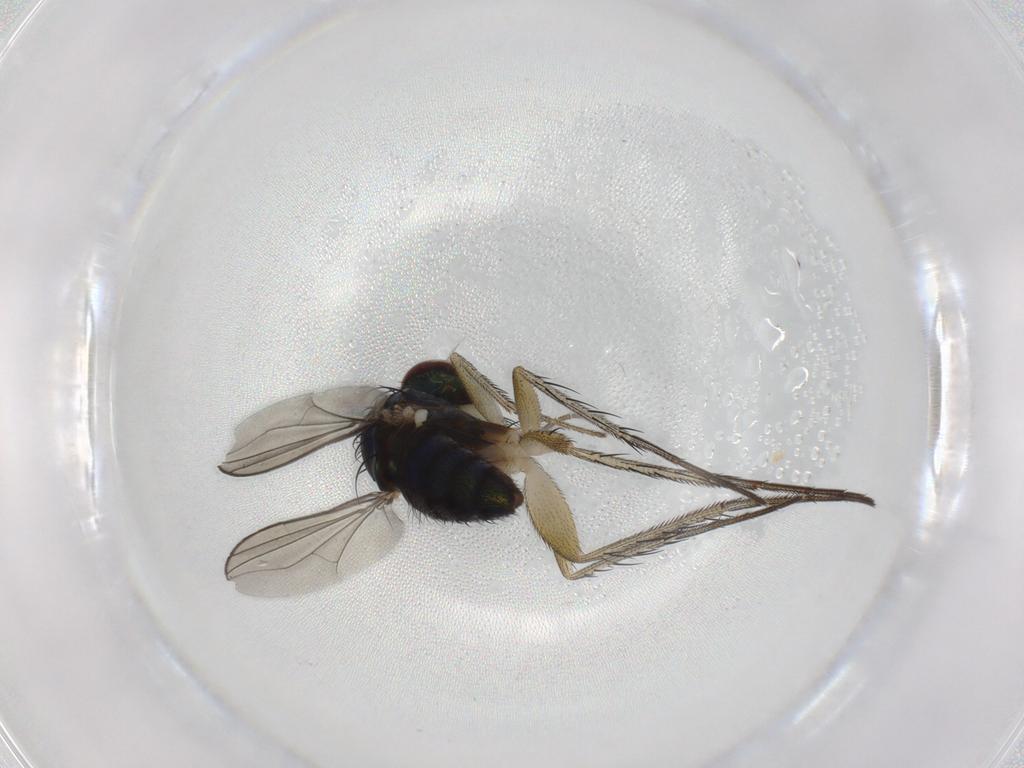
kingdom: Animalia
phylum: Arthropoda
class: Insecta
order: Diptera
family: Dolichopodidae
